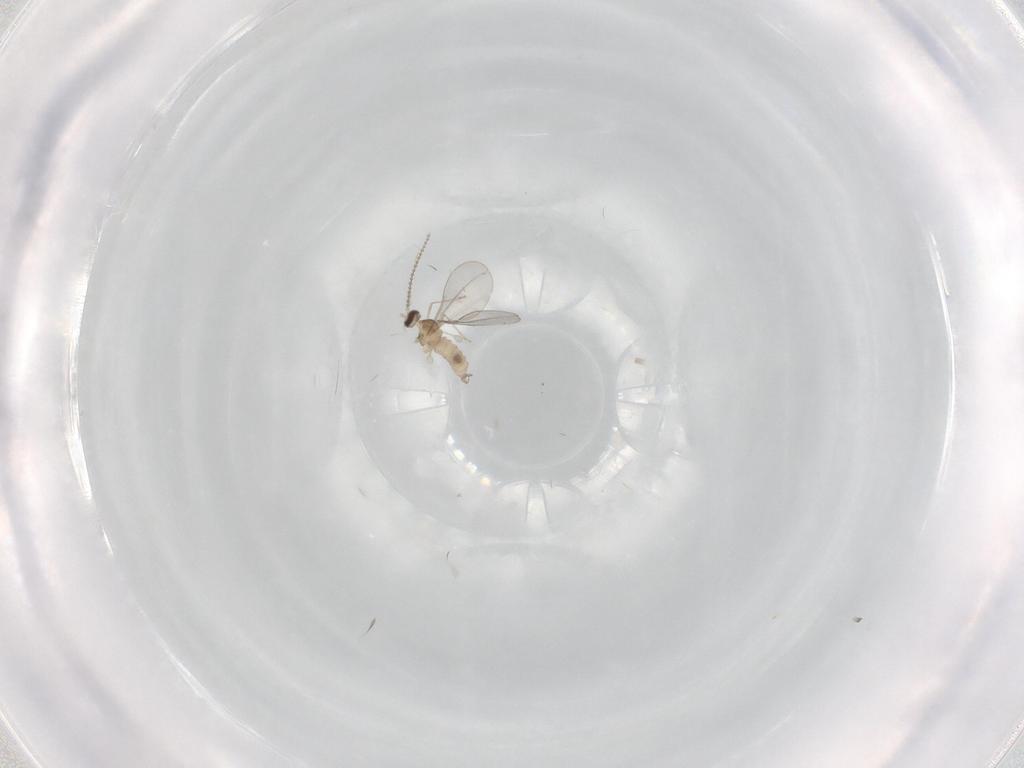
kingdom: Animalia
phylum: Arthropoda
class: Insecta
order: Diptera
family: Cecidomyiidae
